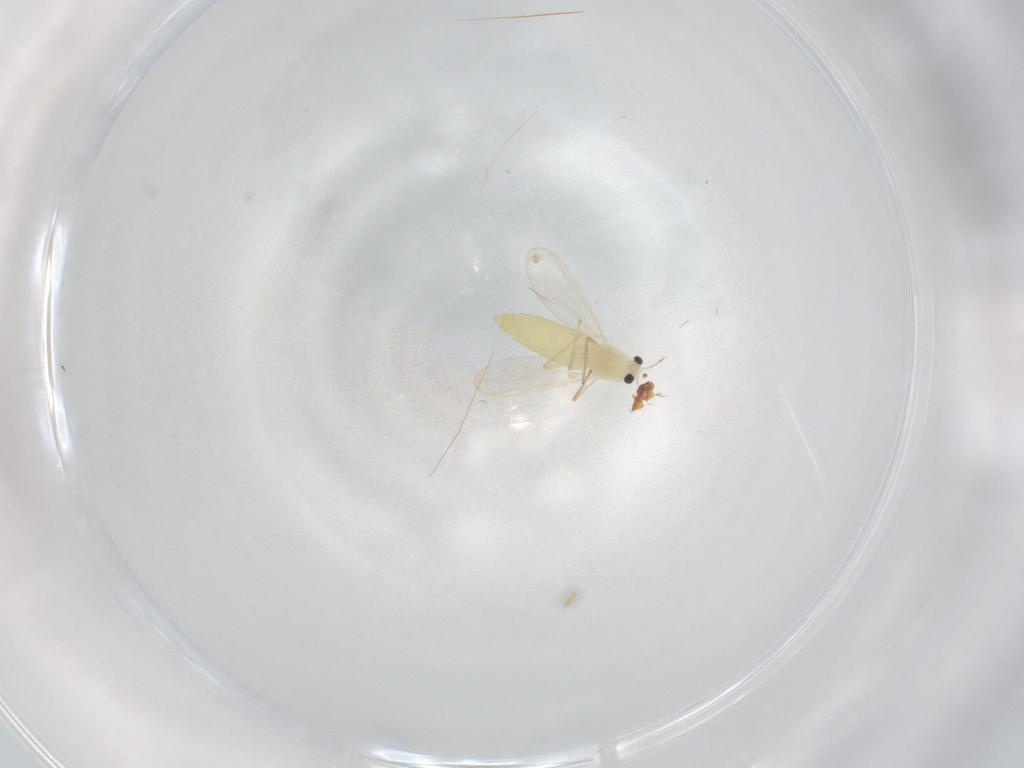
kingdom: Animalia
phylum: Arthropoda
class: Insecta
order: Diptera
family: Chironomidae
